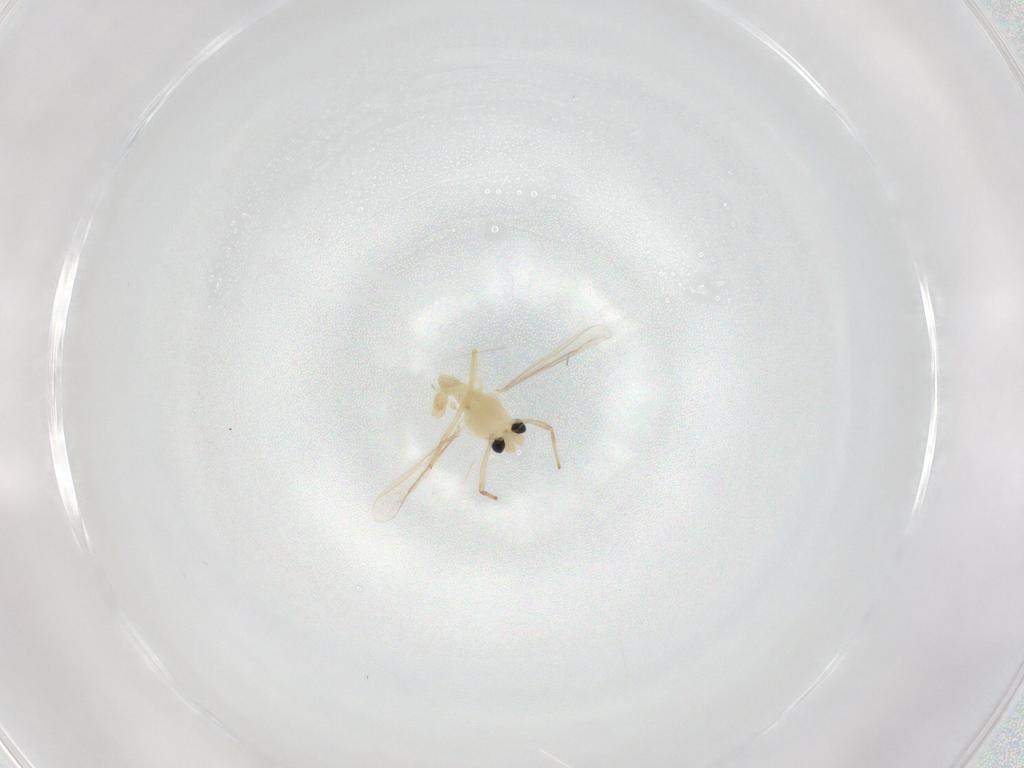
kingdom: Animalia
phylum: Arthropoda
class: Insecta
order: Diptera
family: Chironomidae
